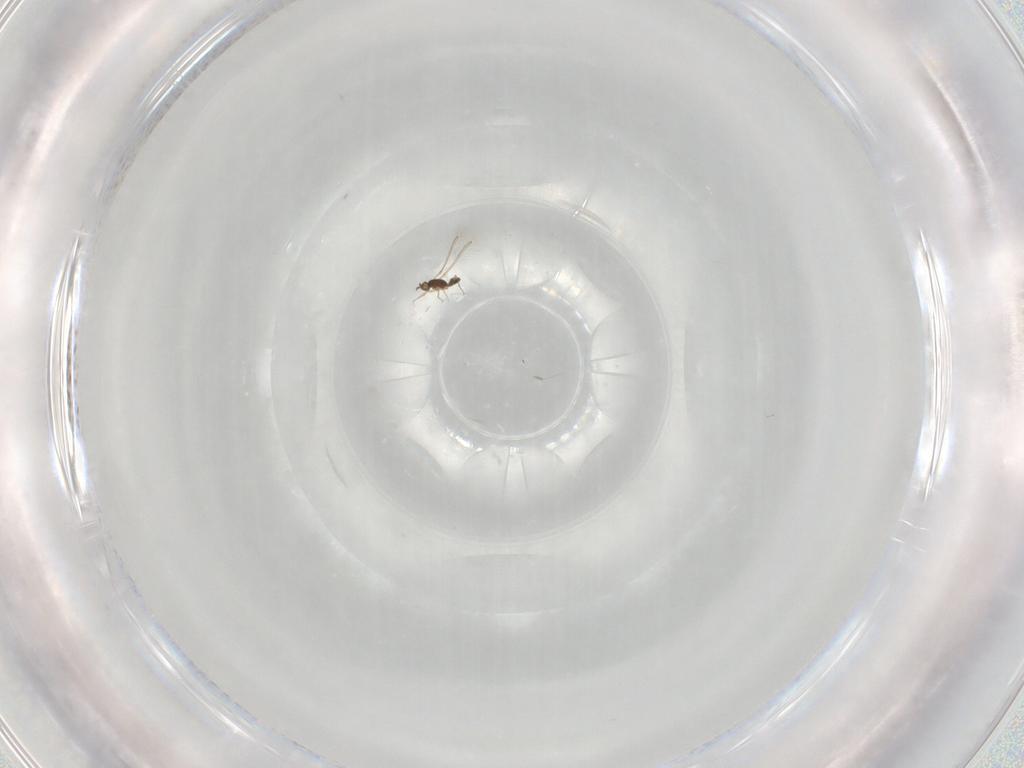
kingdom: Animalia
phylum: Arthropoda
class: Insecta
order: Hymenoptera
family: Mymaridae
